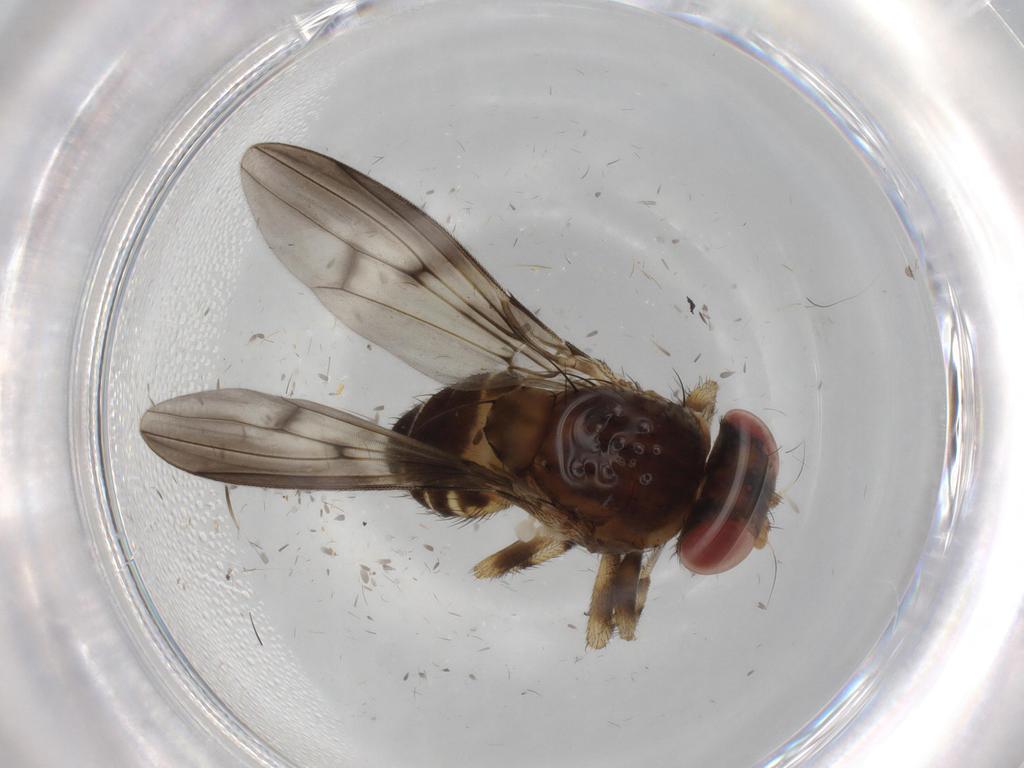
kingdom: Animalia
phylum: Arthropoda
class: Insecta
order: Diptera
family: Drosophilidae
